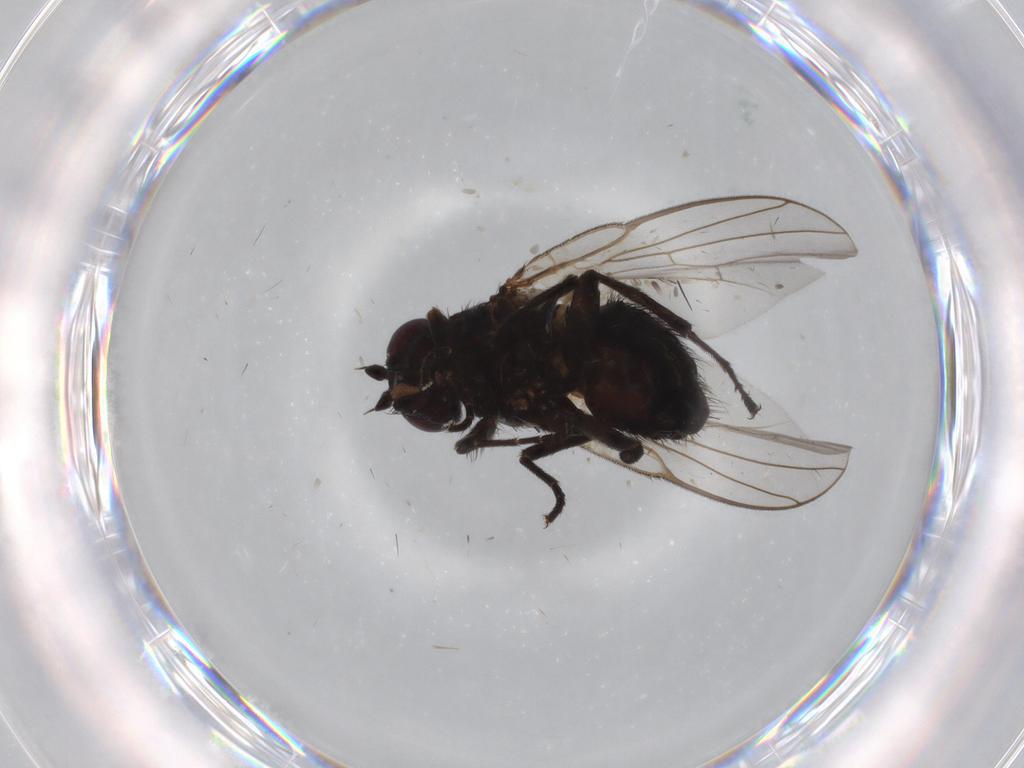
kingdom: Animalia
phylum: Arthropoda
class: Insecta
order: Diptera
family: Agromyzidae
